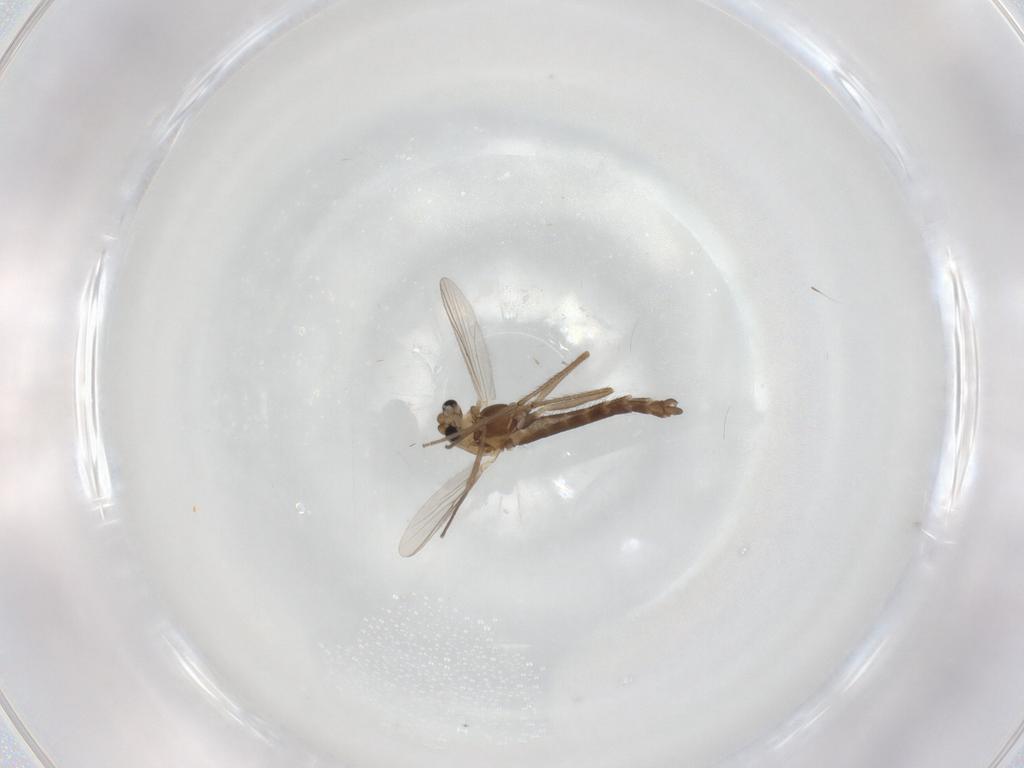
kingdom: Animalia
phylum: Arthropoda
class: Insecta
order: Diptera
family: Chironomidae
